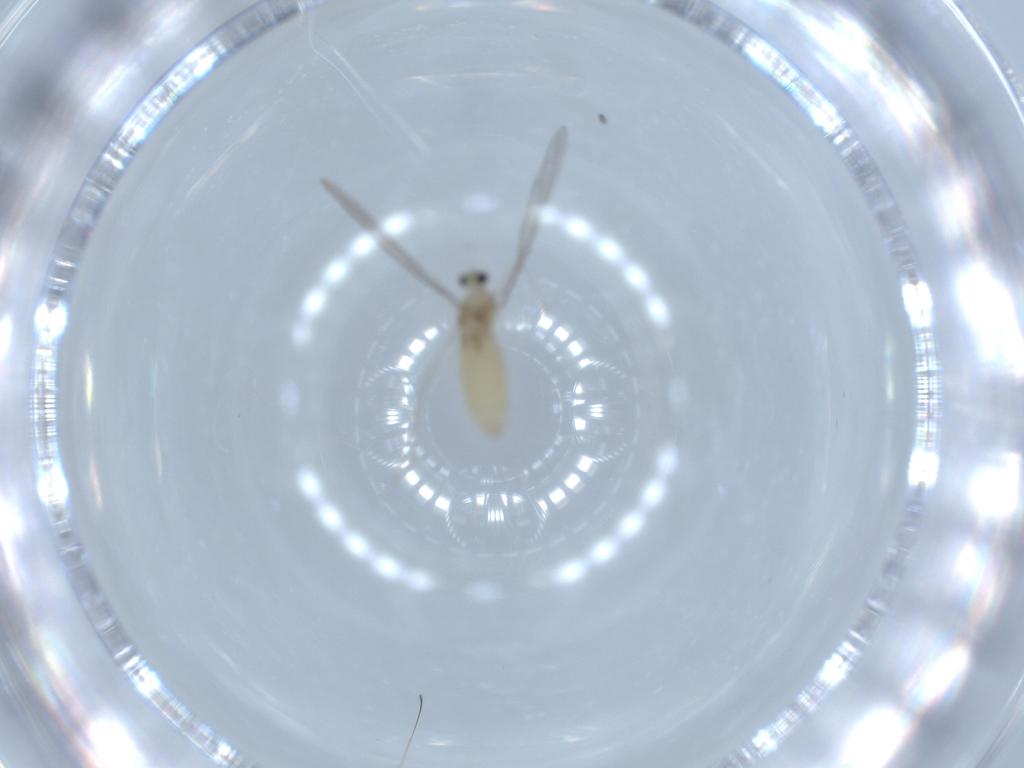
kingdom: Animalia
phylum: Arthropoda
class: Insecta
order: Diptera
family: Cecidomyiidae
